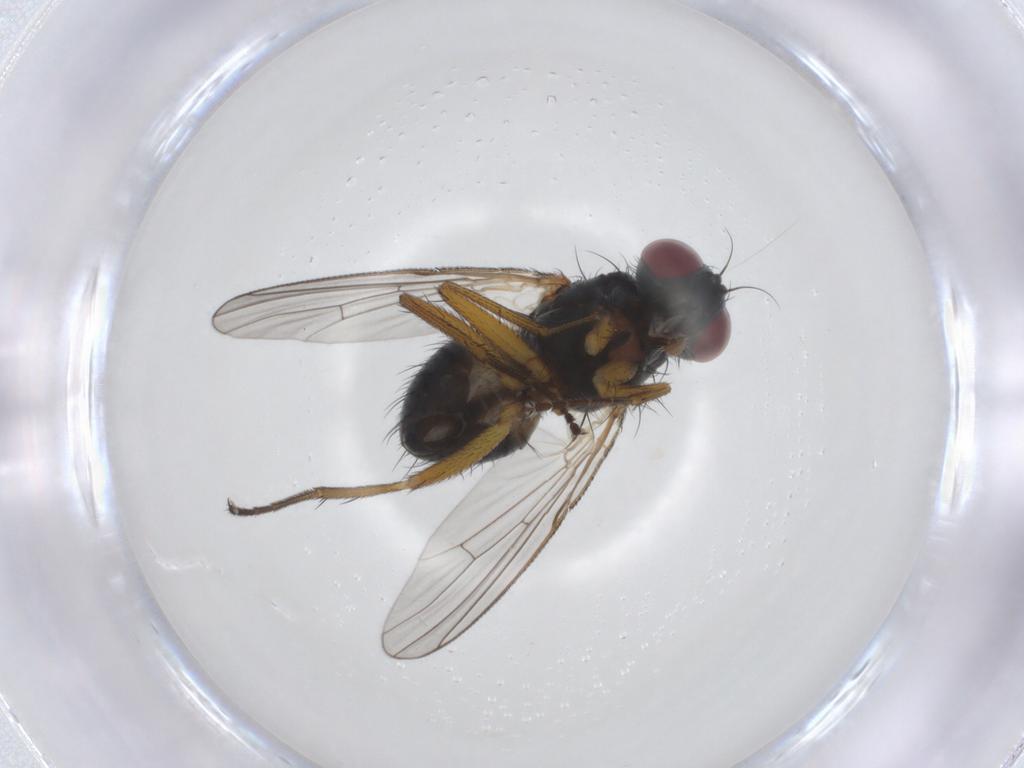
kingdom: Animalia
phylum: Arthropoda
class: Insecta
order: Diptera
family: Muscidae
